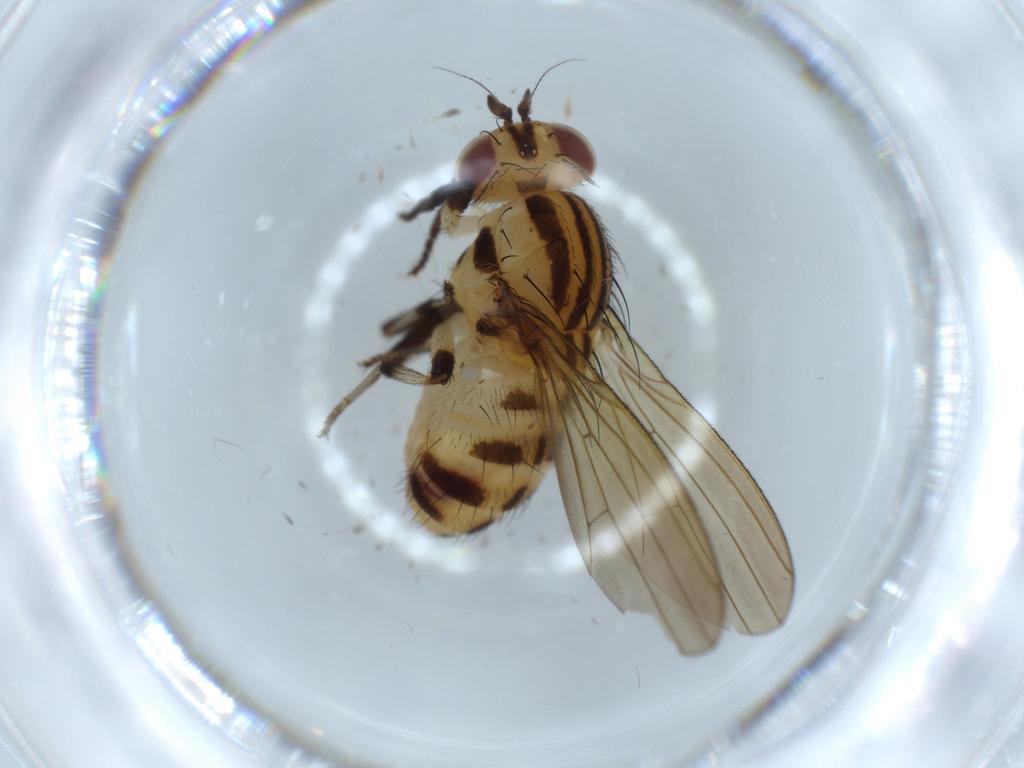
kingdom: Animalia
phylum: Arthropoda
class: Insecta
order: Diptera
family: Lauxaniidae
